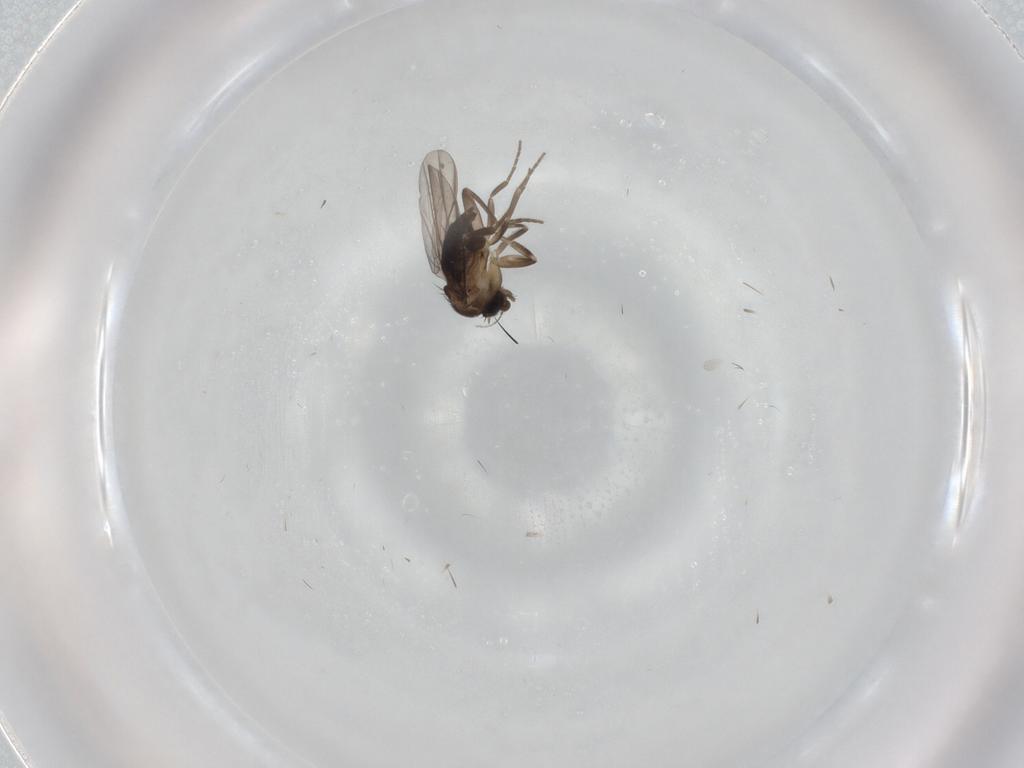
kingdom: Animalia
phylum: Arthropoda
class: Insecta
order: Diptera
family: Phoridae
